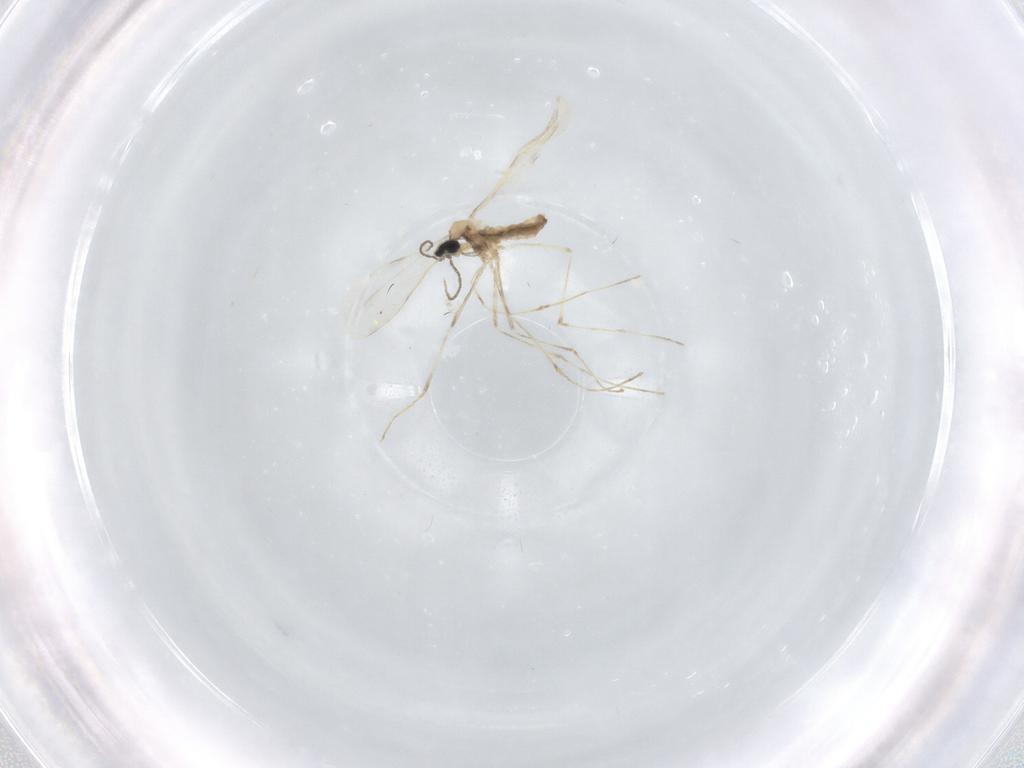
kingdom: Animalia
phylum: Arthropoda
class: Insecta
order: Diptera
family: Cecidomyiidae
